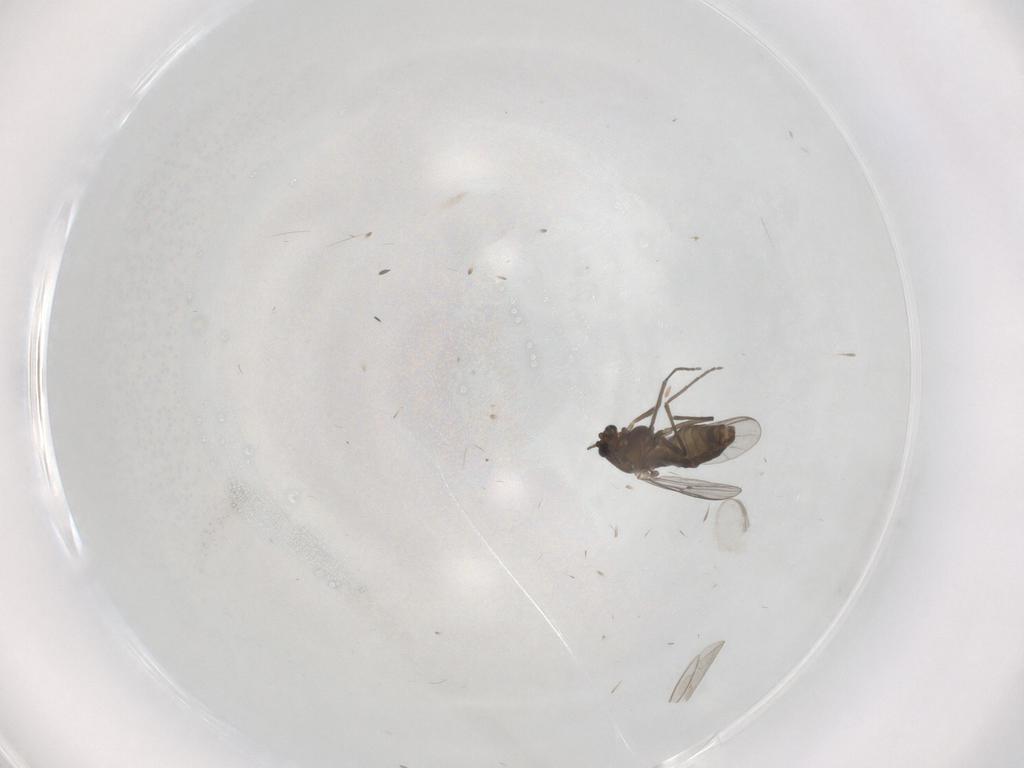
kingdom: Animalia
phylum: Arthropoda
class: Insecta
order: Diptera
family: Chironomidae
